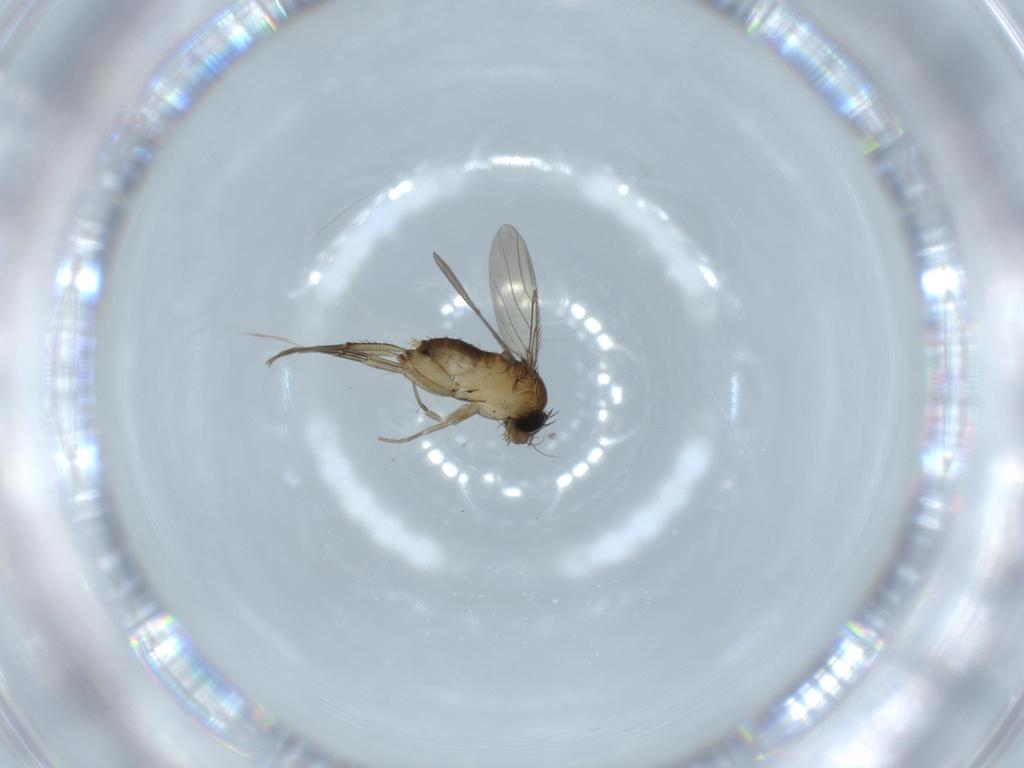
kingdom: Animalia
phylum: Arthropoda
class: Insecta
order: Diptera
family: Phoridae
